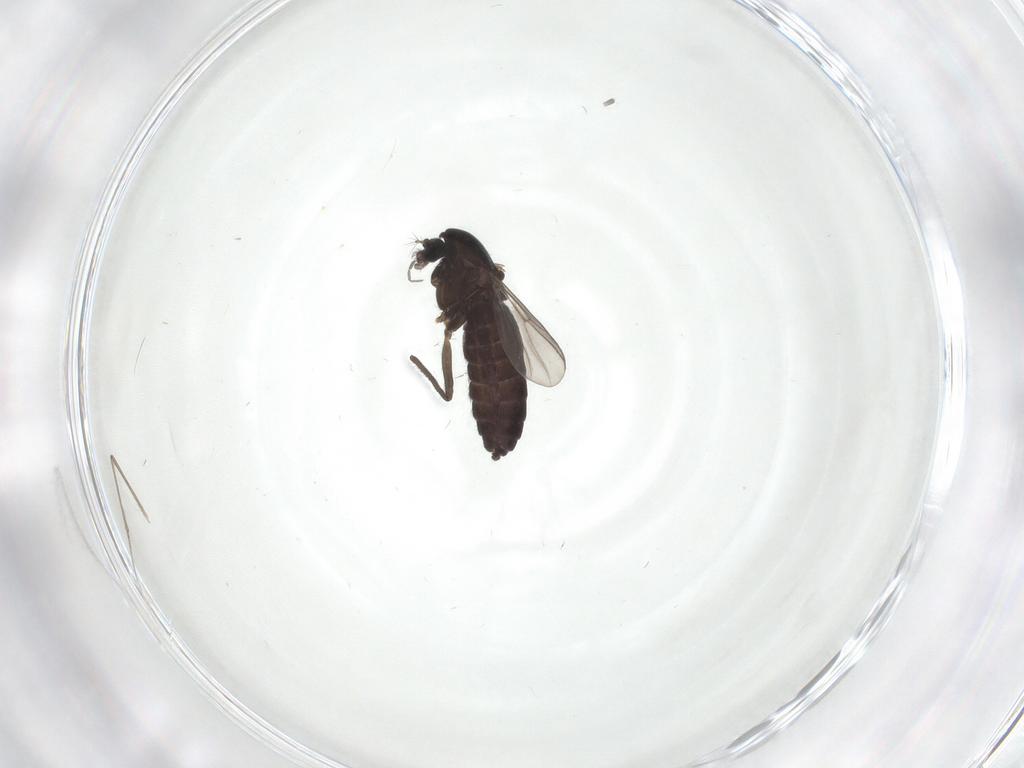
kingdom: Animalia
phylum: Arthropoda
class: Insecta
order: Diptera
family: Chironomidae
